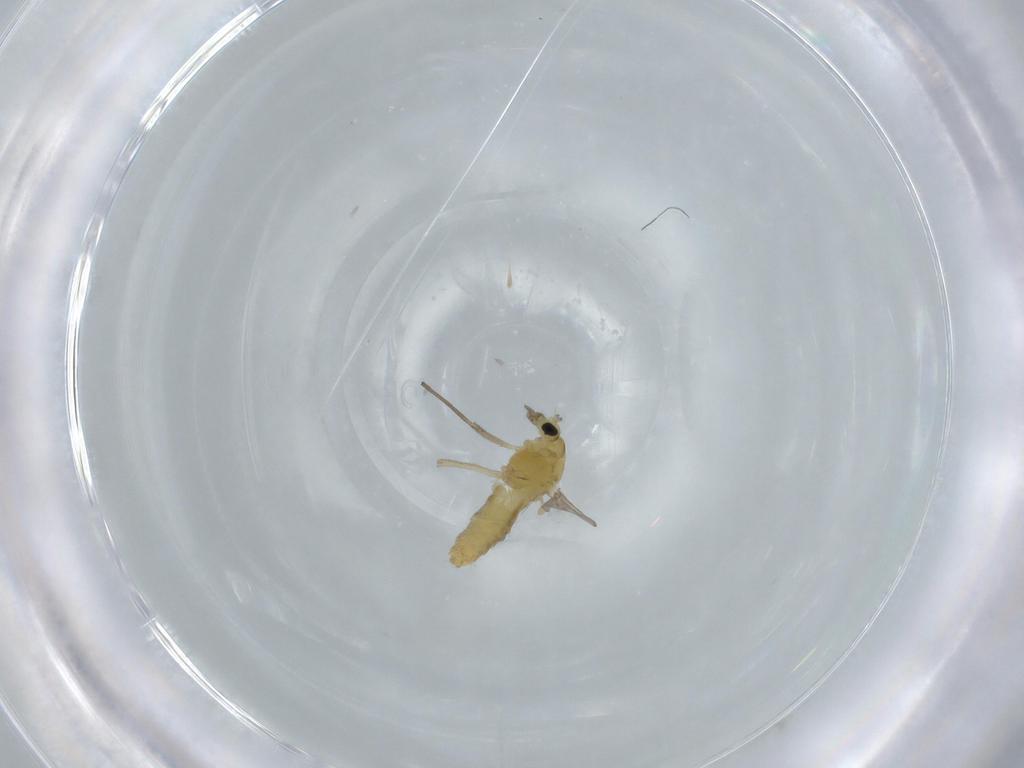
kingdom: Animalia
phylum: Arthropoda
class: Insecta
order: Diptera
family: Chironomidae
